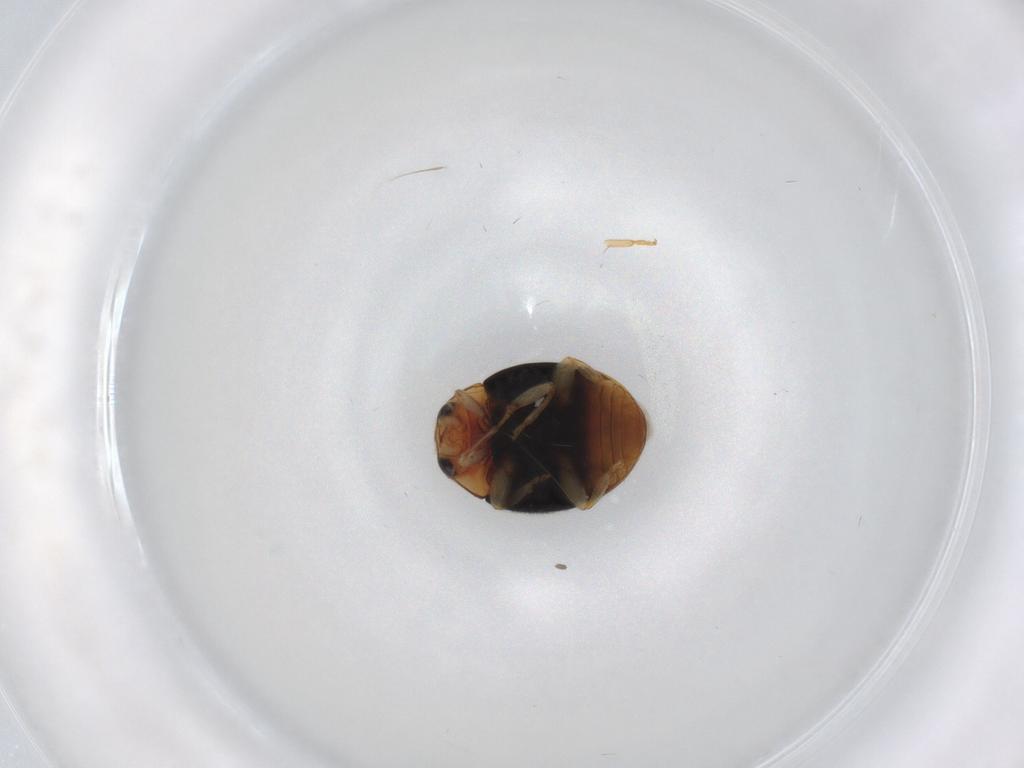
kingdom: Animalia
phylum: Arthropoda
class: Insecta
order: Coleoptera
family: Coccinellidae
